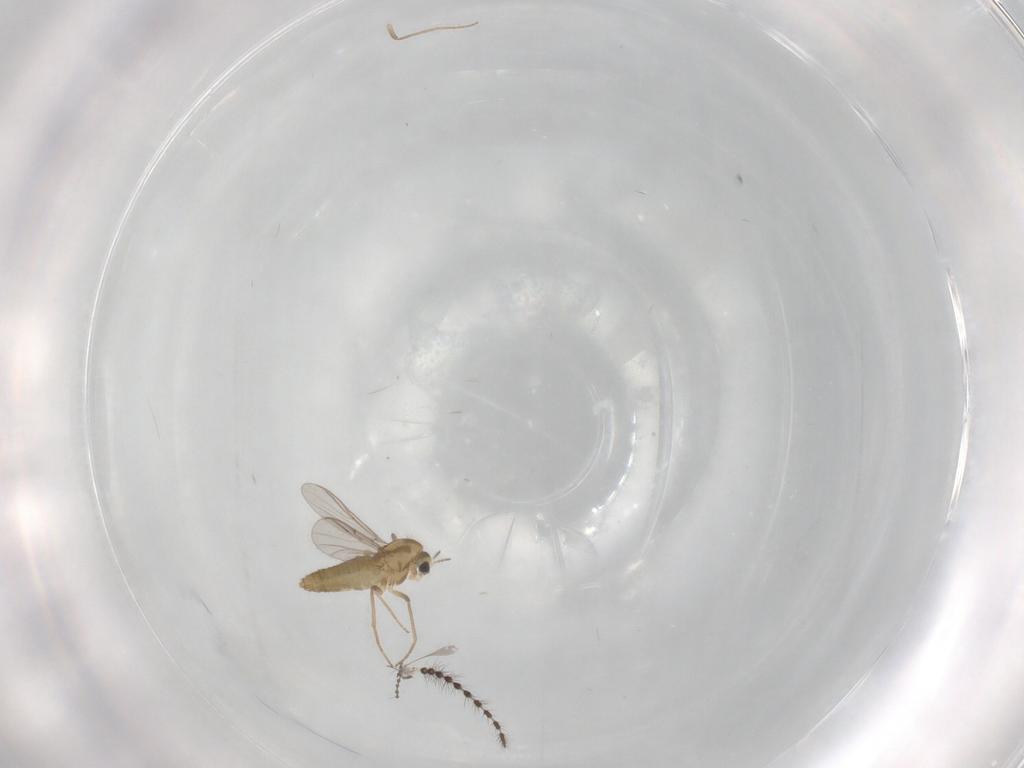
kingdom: Animalia
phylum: Arthropoda
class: Insecta
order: Diptera
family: Chironomidae
